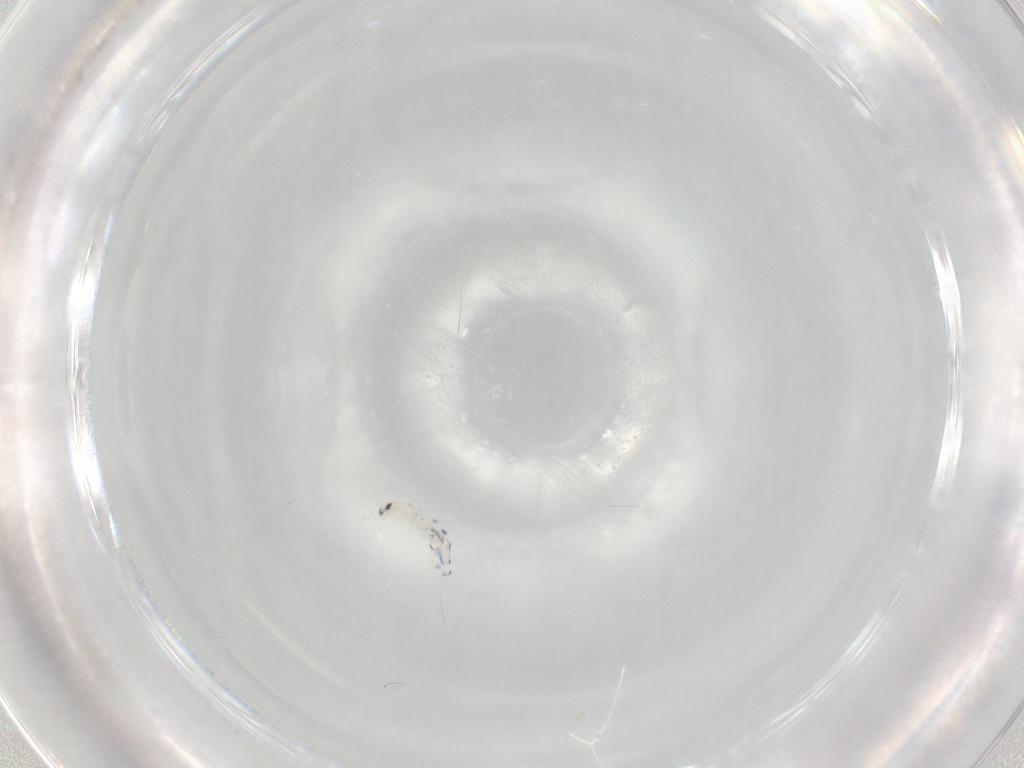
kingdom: Animalia
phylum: Arthropoda
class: Collembola
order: Entomobryomorpha
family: Entomobryidae
